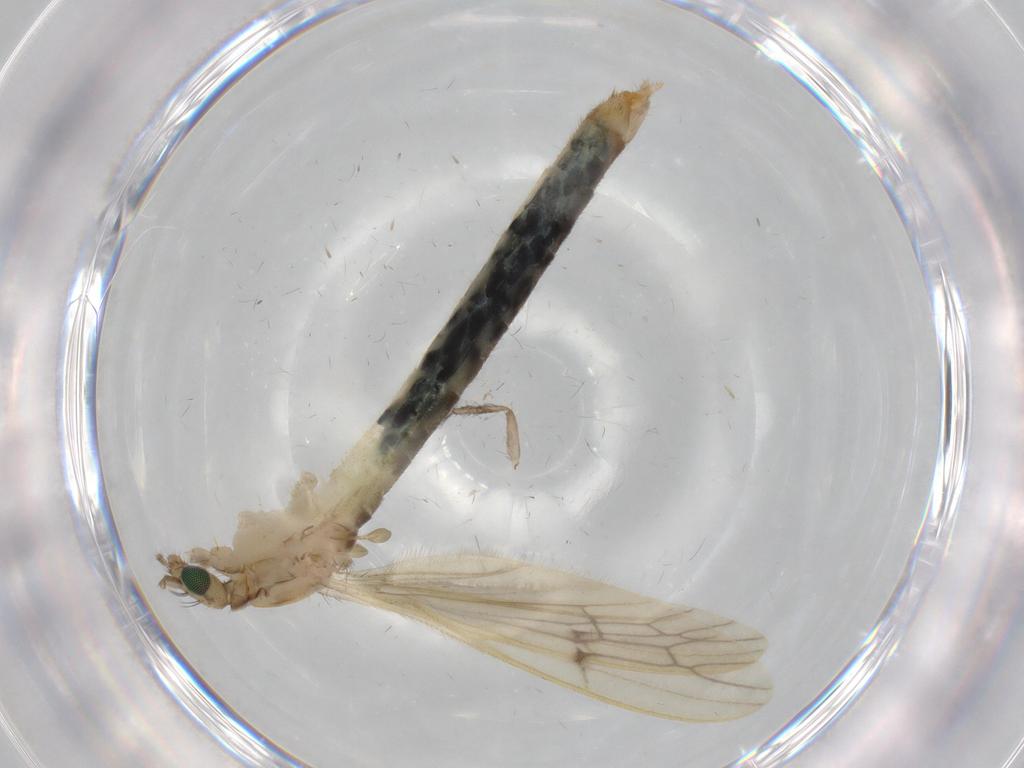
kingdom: Animalia
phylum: Arthropoda
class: Insecta
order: Diptera
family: Limoniidae
